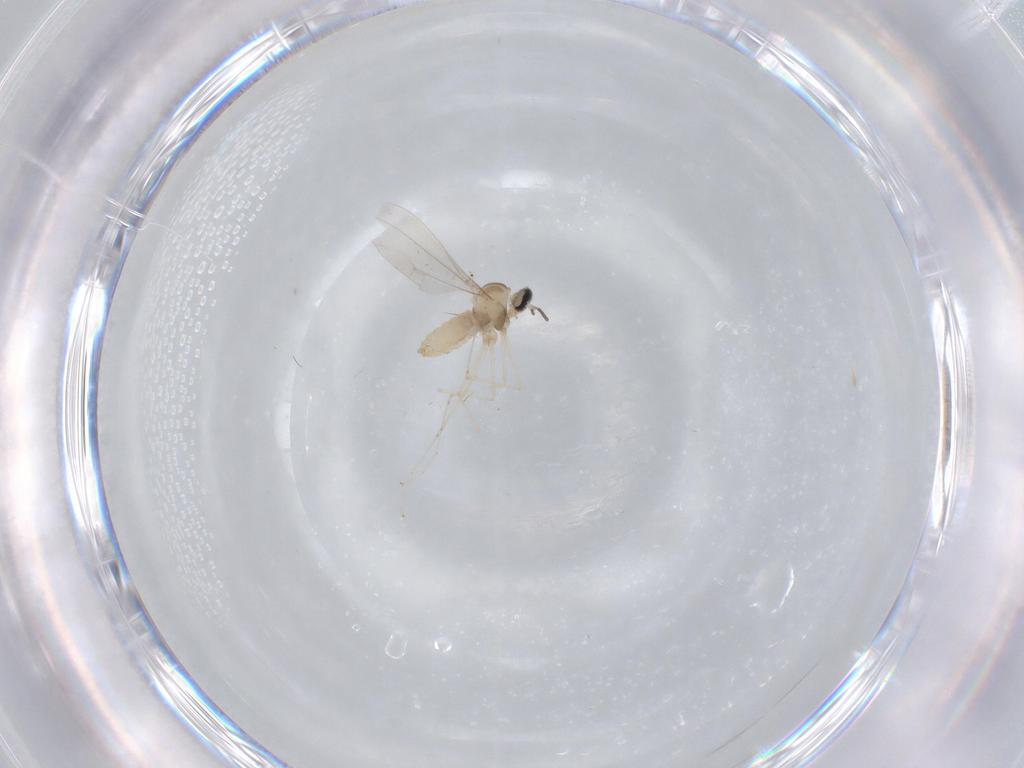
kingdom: Animalia
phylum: Arthropoda
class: Insecta
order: Diptera
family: Cecidomyiidae
